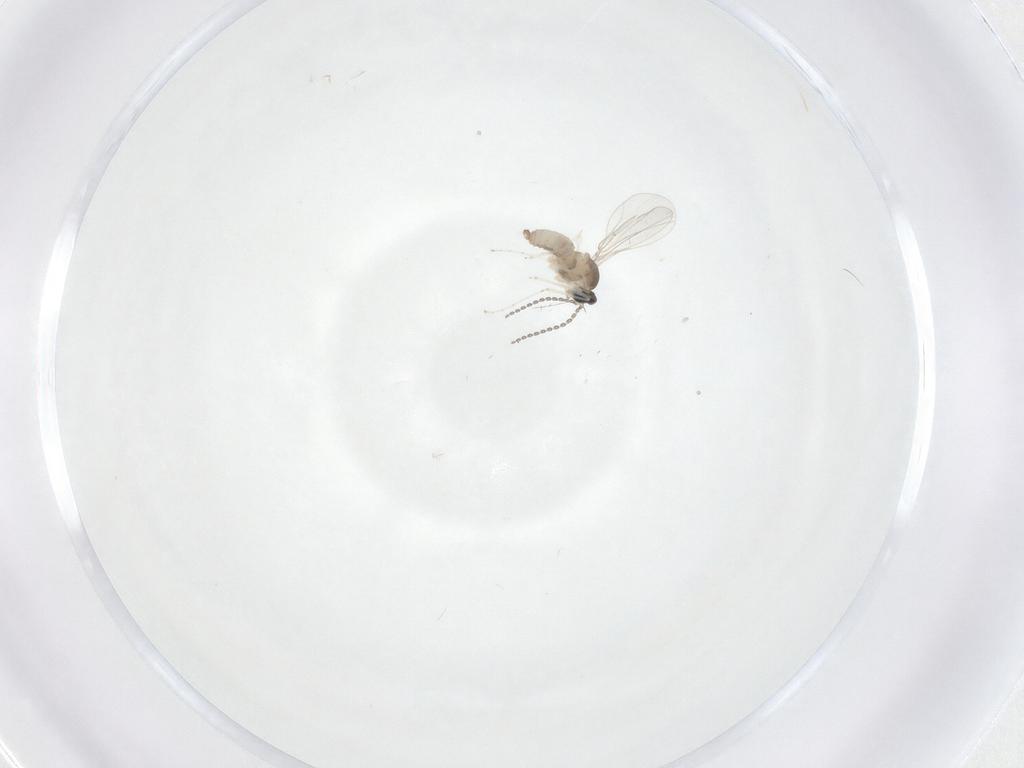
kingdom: Animalia
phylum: Arthropoda
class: Insecta
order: Diptera
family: Cecidomyiidae
